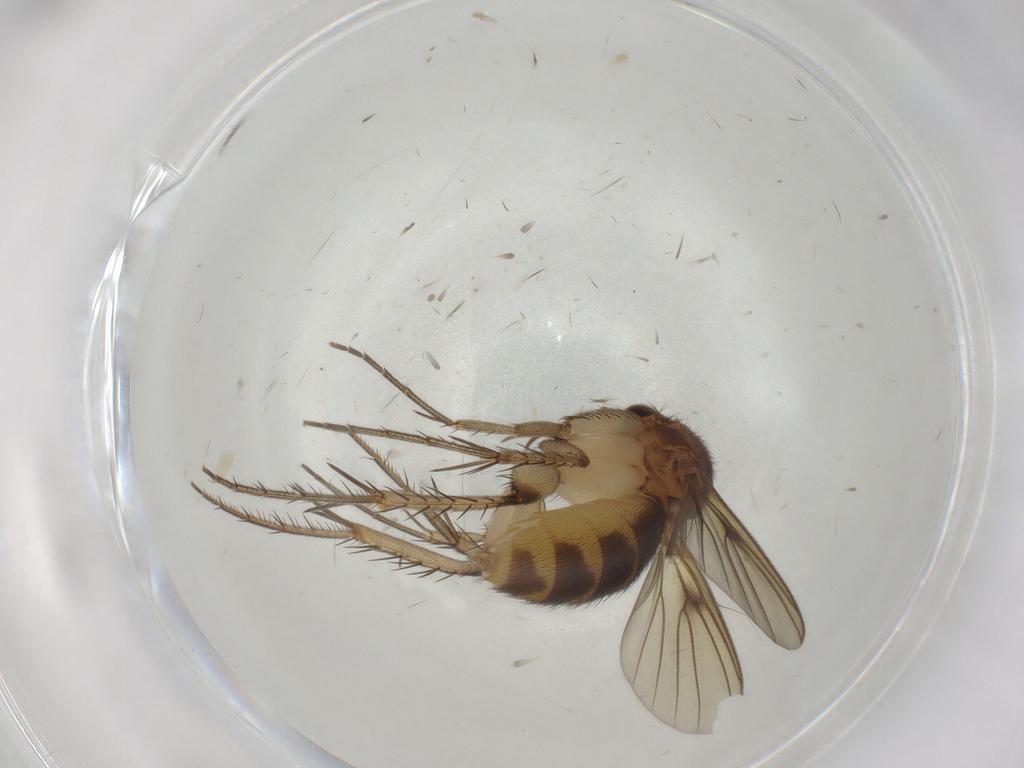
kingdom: Animalia
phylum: Arthropoda
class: Insecta
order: Diptera
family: Mycetophilidae
